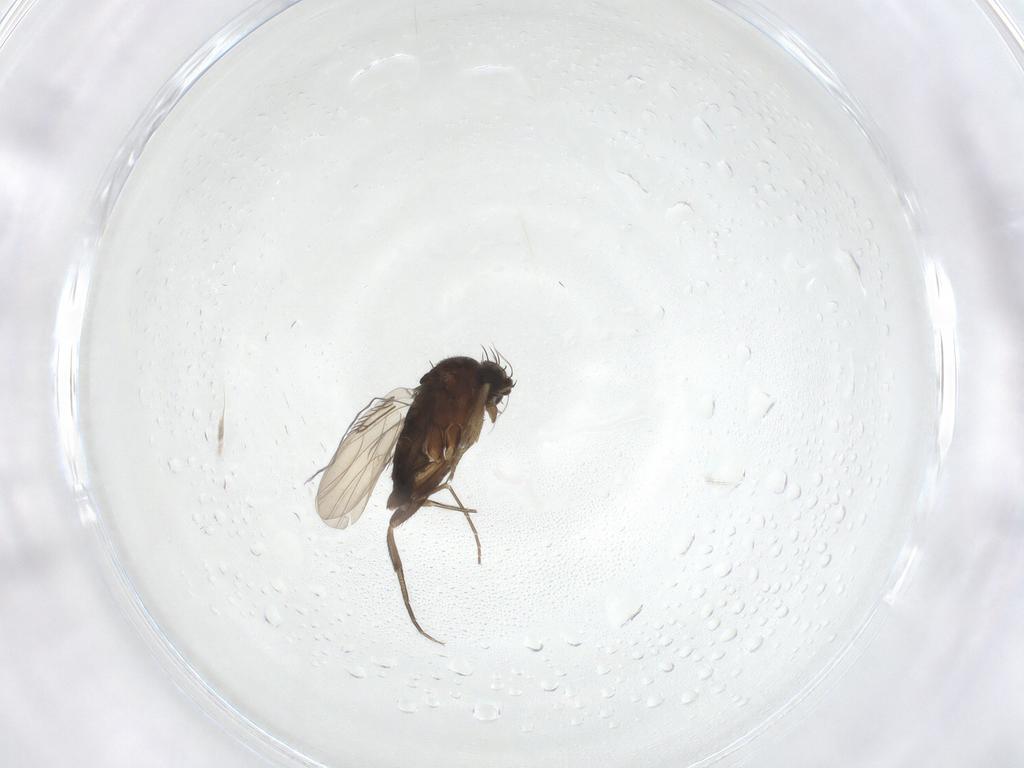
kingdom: Animalia
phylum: Arthropoda
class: Insecta
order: Diptera
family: Phoridae
